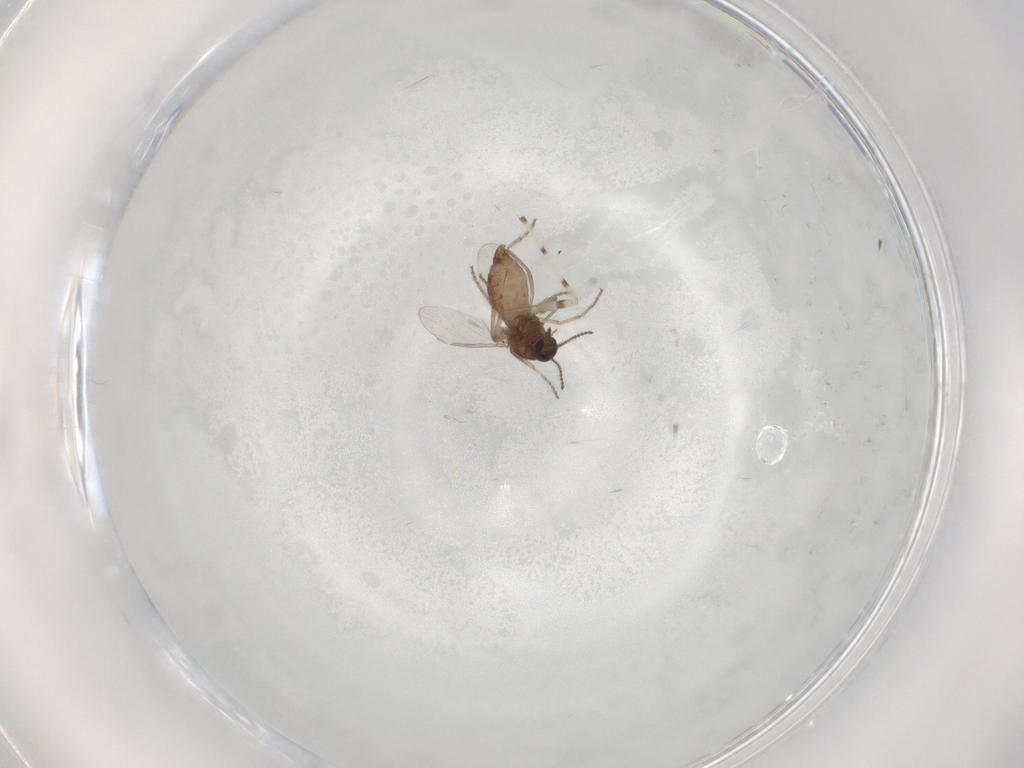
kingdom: Animalia
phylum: Arthropoda
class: Insecta
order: Diptera
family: Ceratopogonidae
